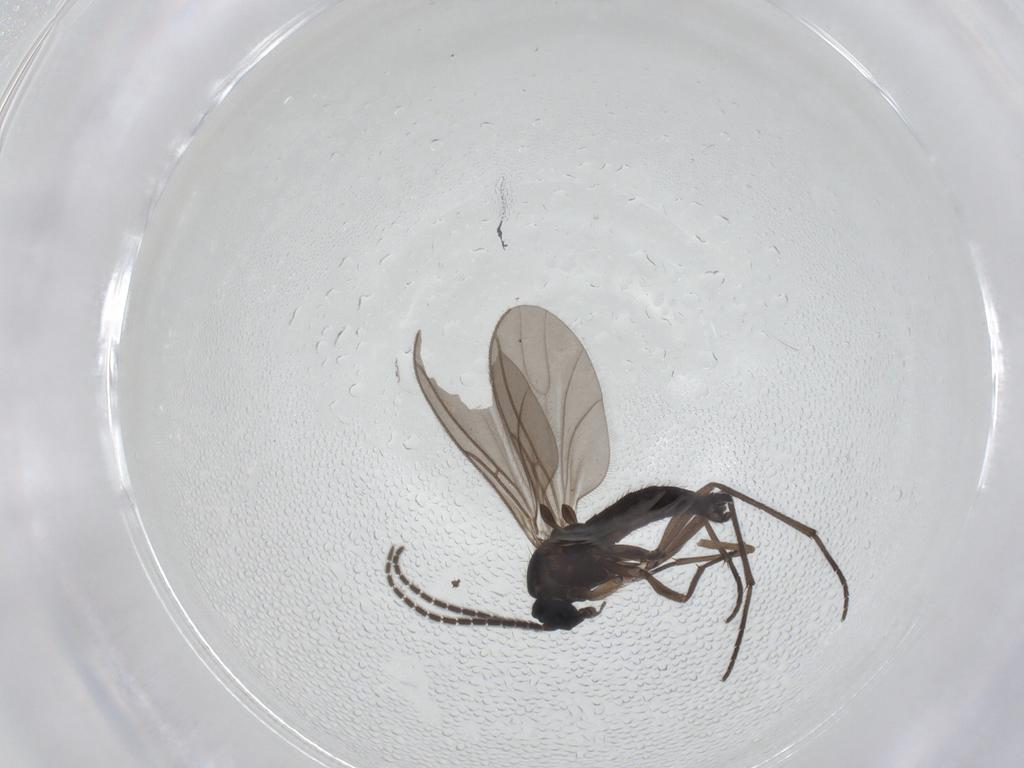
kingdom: Animalia
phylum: Arthropoda
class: Insecta
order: Diptera
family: Sciaridae
